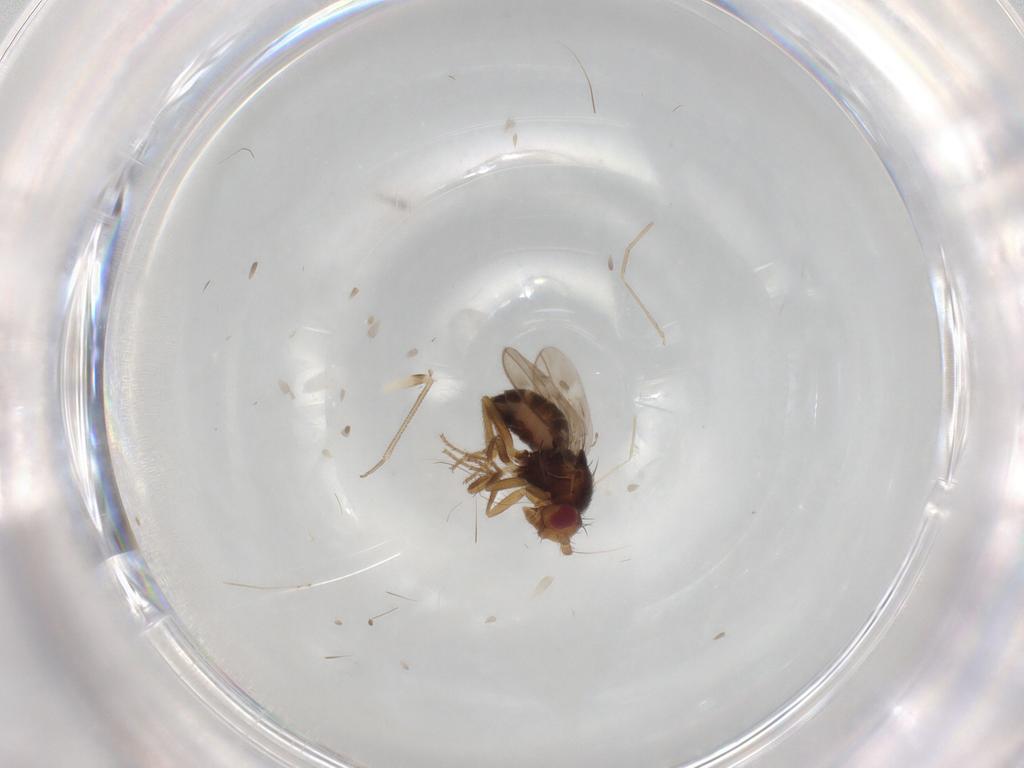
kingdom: Animalia
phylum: Arthropoda
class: Insecta
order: Diptera
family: Sphaeroceridae
